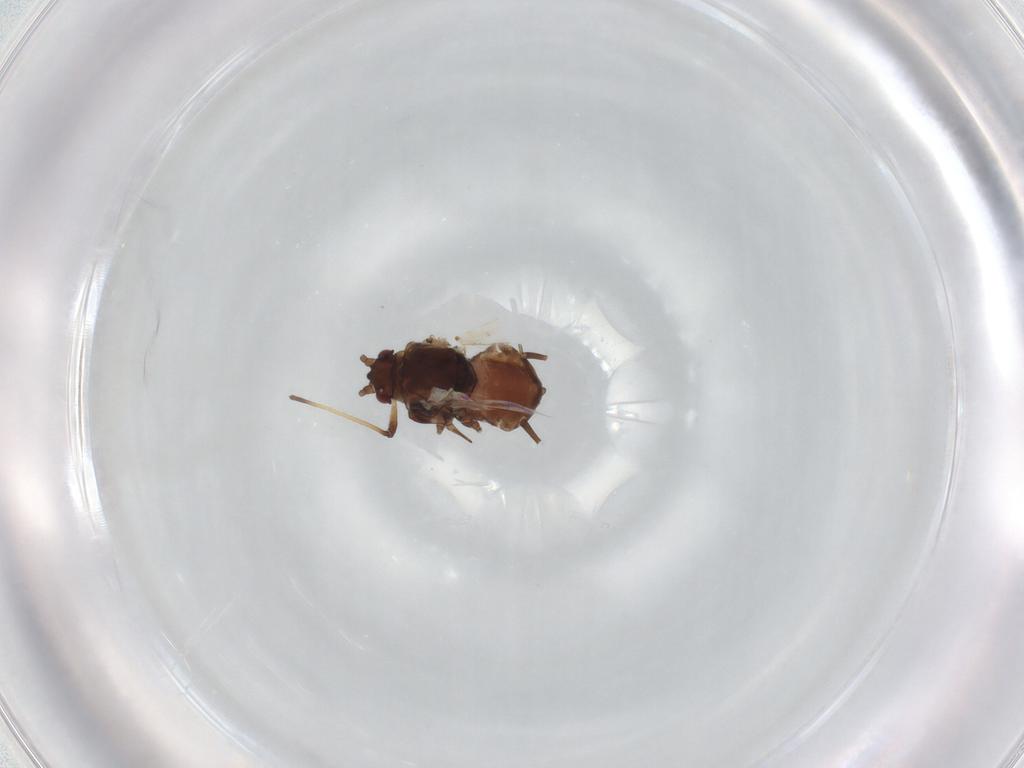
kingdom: Animalia
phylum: Arthropoda
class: Insecta
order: Hemiptera
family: Aphididae
